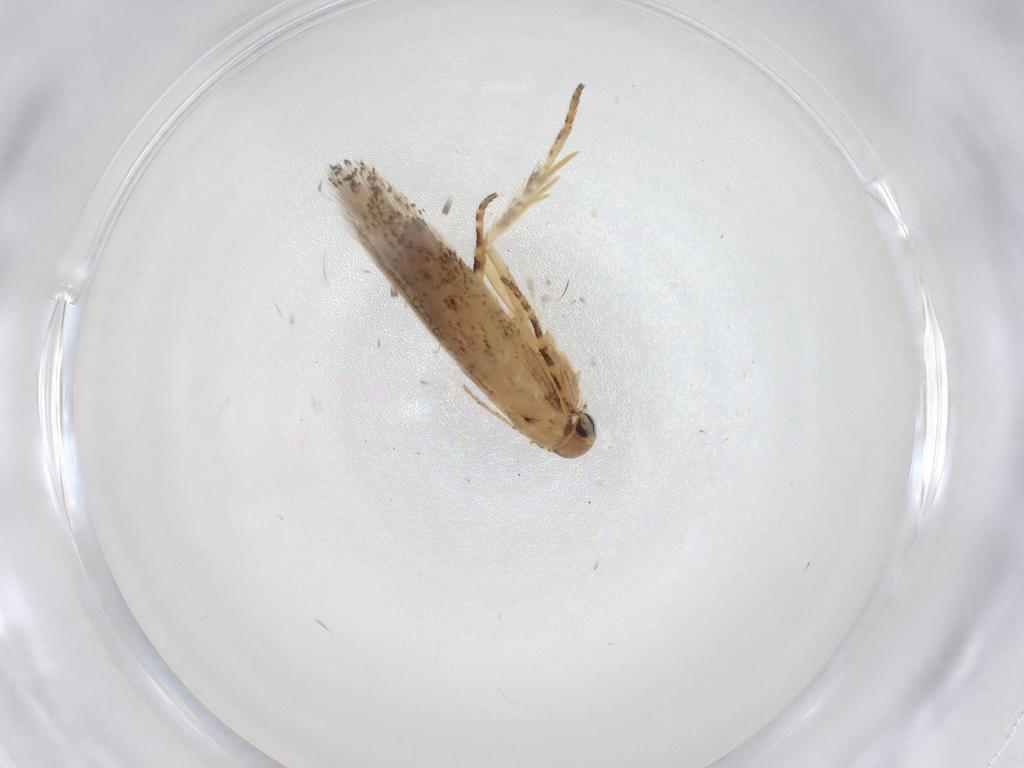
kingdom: Animalia
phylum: Arthropoda
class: Insecta
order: Lepidoptera
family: Gelechiidae
